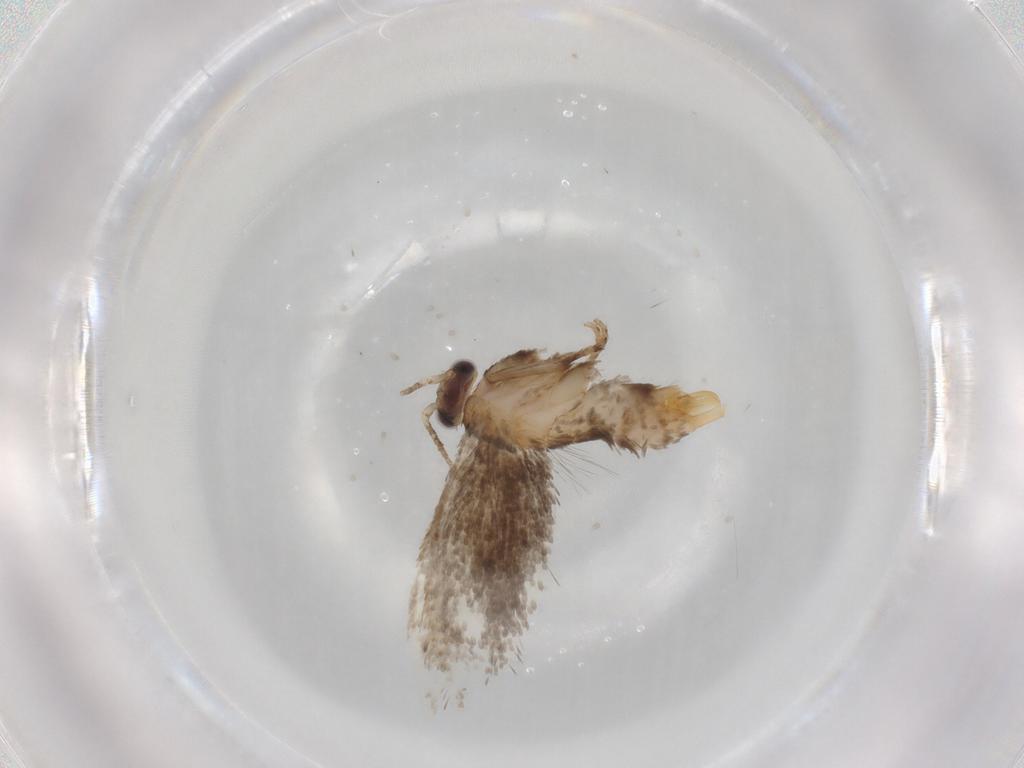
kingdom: Animalia
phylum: Arthropoda
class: Insecta
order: Lepidoptera
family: Tineidae
